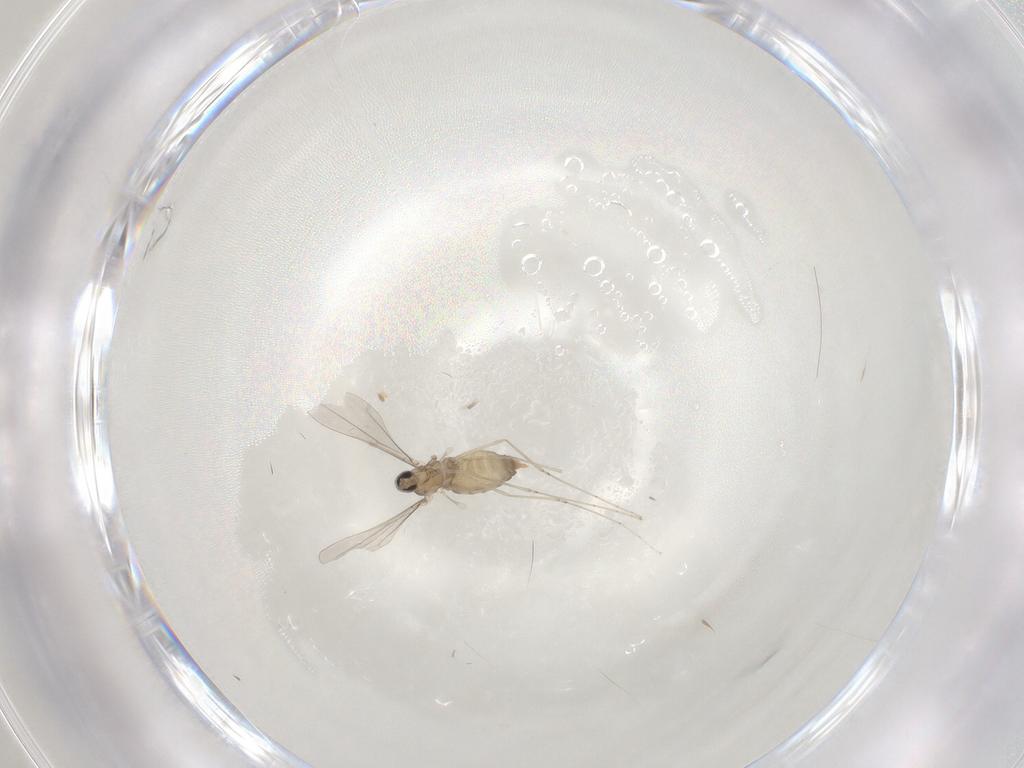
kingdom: Animalia
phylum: Arthropoda
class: Insecta
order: Diptera
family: Cecidomyiidae
